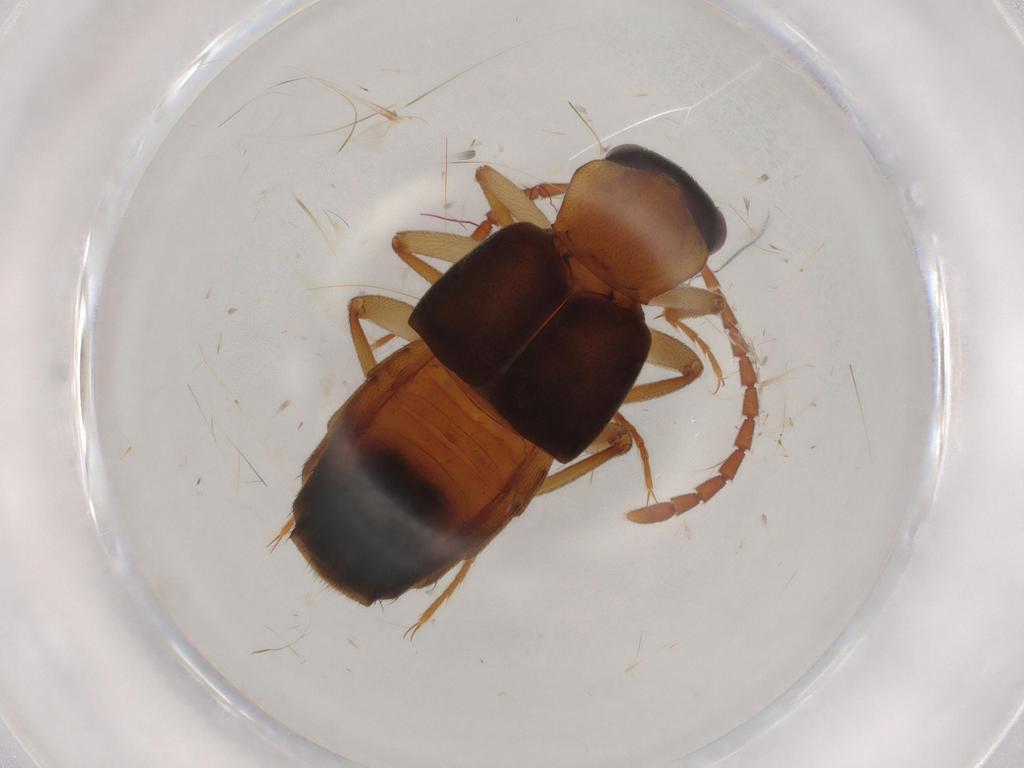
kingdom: Animalia
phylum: Arthropoda
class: Insecta
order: Coleoptera
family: Staphylinidae
